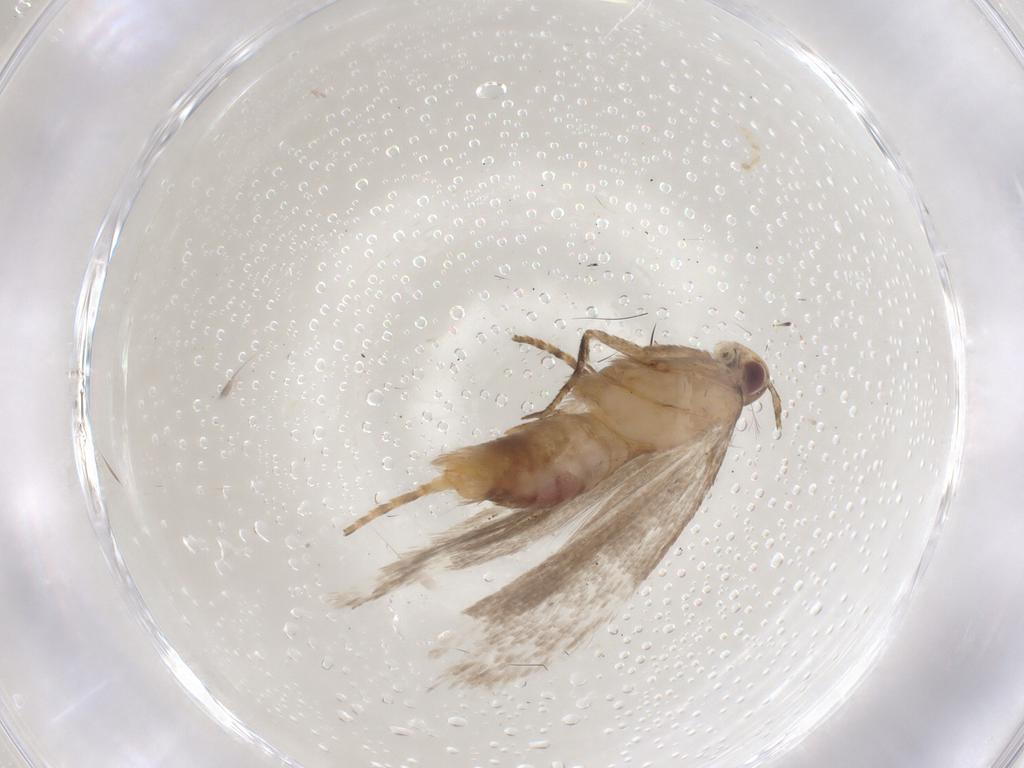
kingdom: Animalia
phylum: Arthropoda
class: Insecta
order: Lepidoptera
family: Gelechiidae
